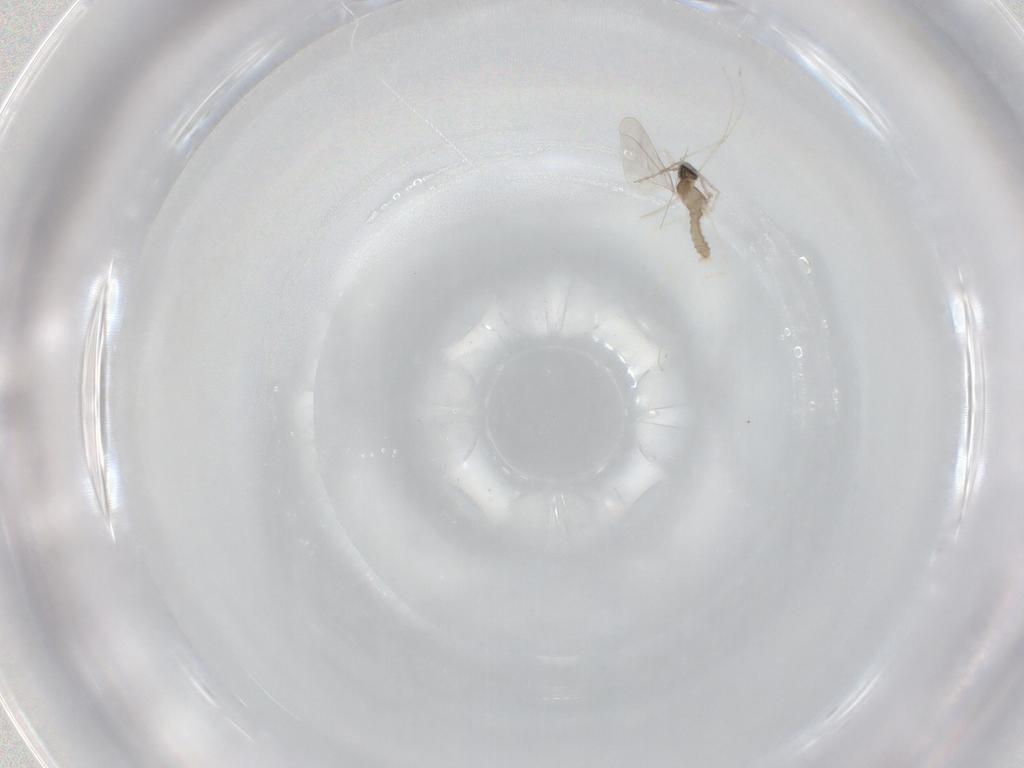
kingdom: Animalia
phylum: Arthropoda
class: Insecta
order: Diptera
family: Cecidomyiidae
